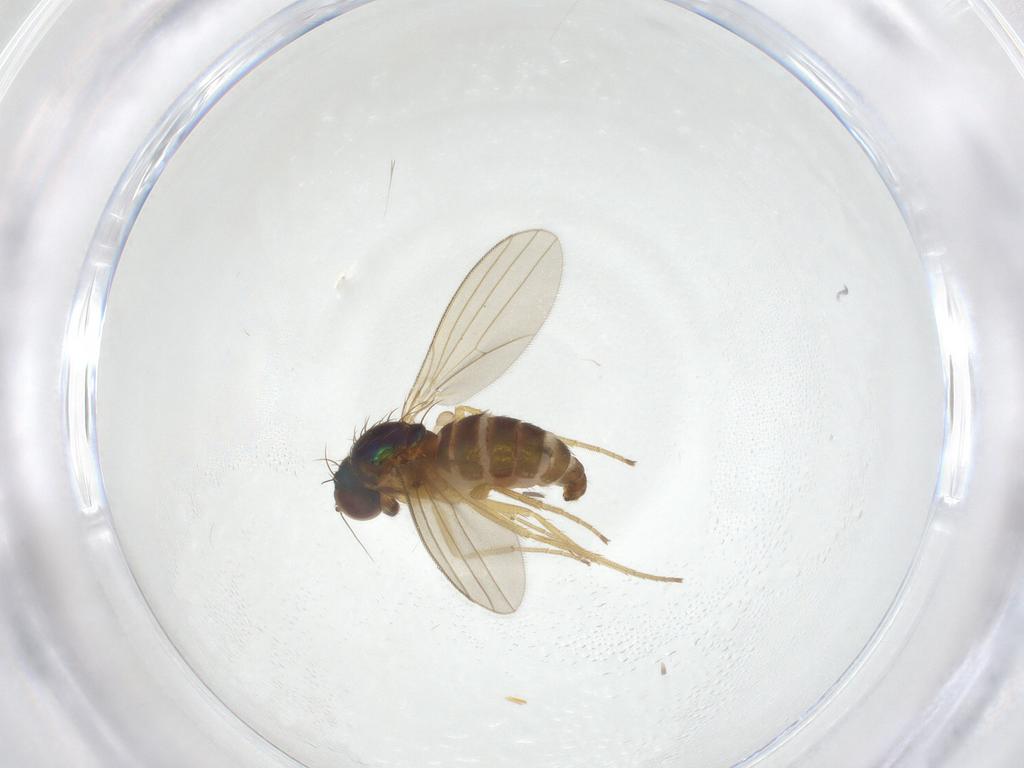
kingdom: Animalia
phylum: Arthropoda
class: Insecta
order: Diptera
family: Dolichopodidae
